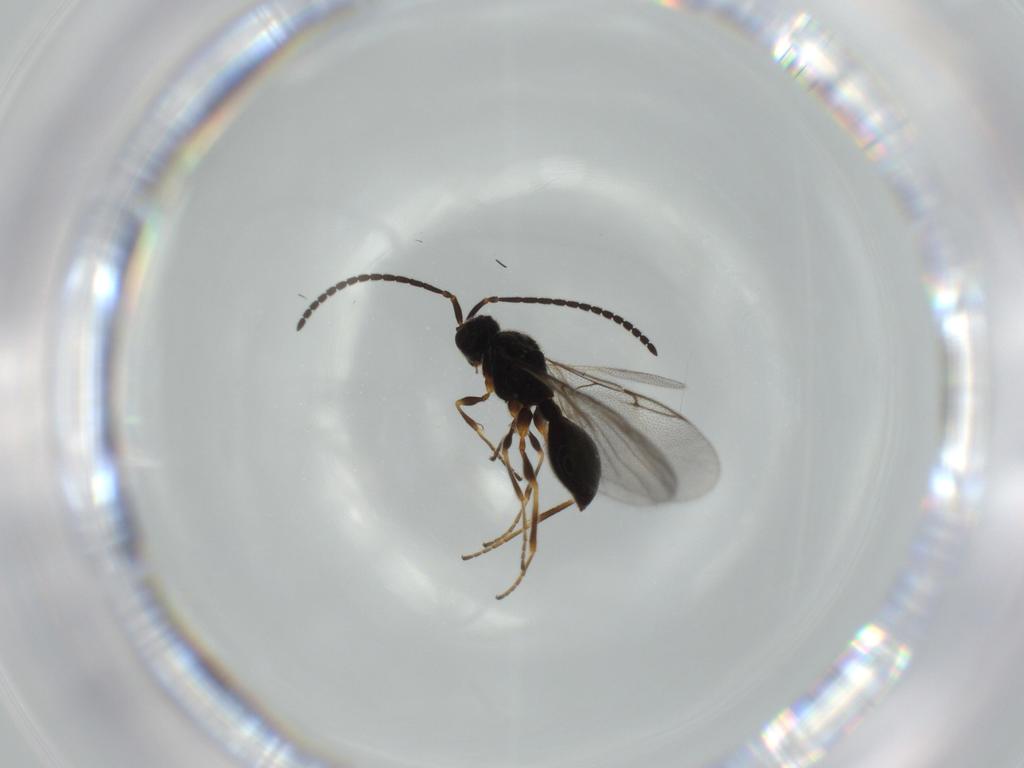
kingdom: Animalia
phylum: Arthropoda
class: Insecta
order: Hymenoptera
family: Diapriidae
